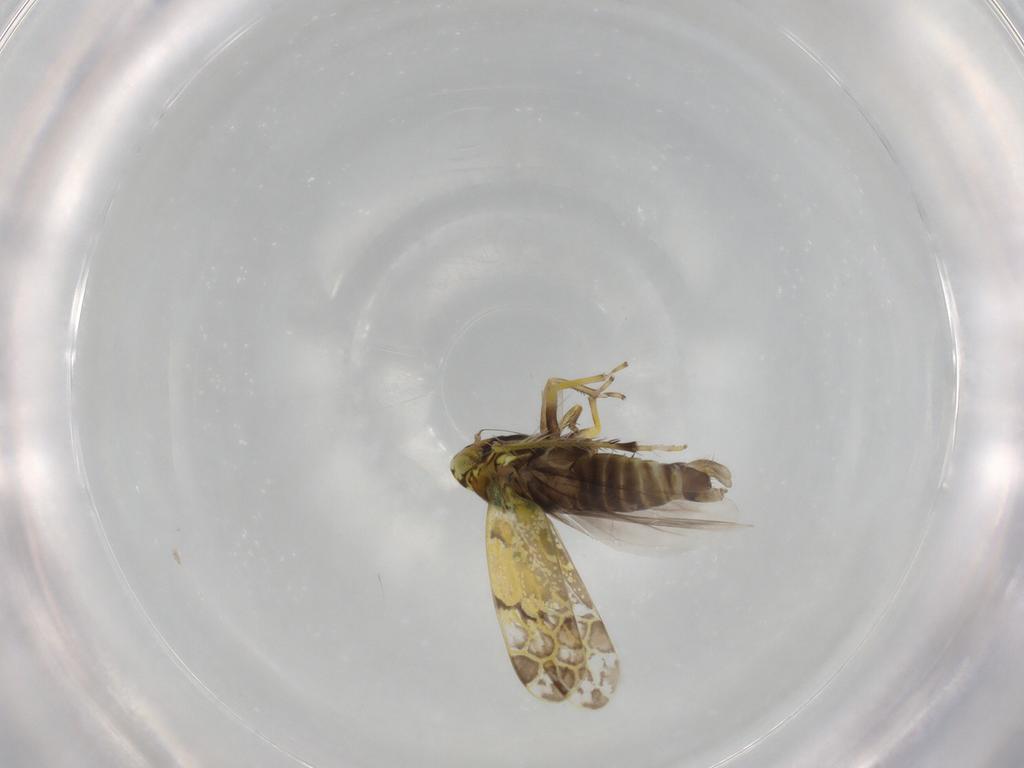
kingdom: Animalia
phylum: Arthropoda
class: Insecta
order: Hemiptera
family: Cicadellidae
